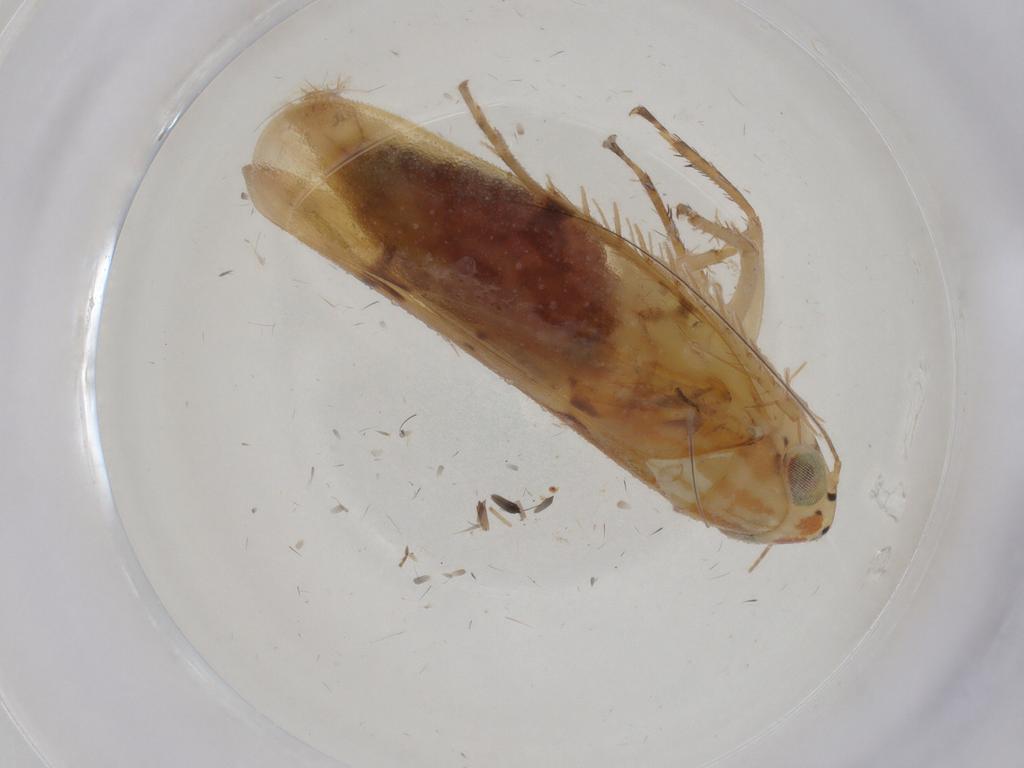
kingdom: Animalia
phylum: Arthropoda
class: Insecta
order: Hemiptera
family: Cicadellidae
